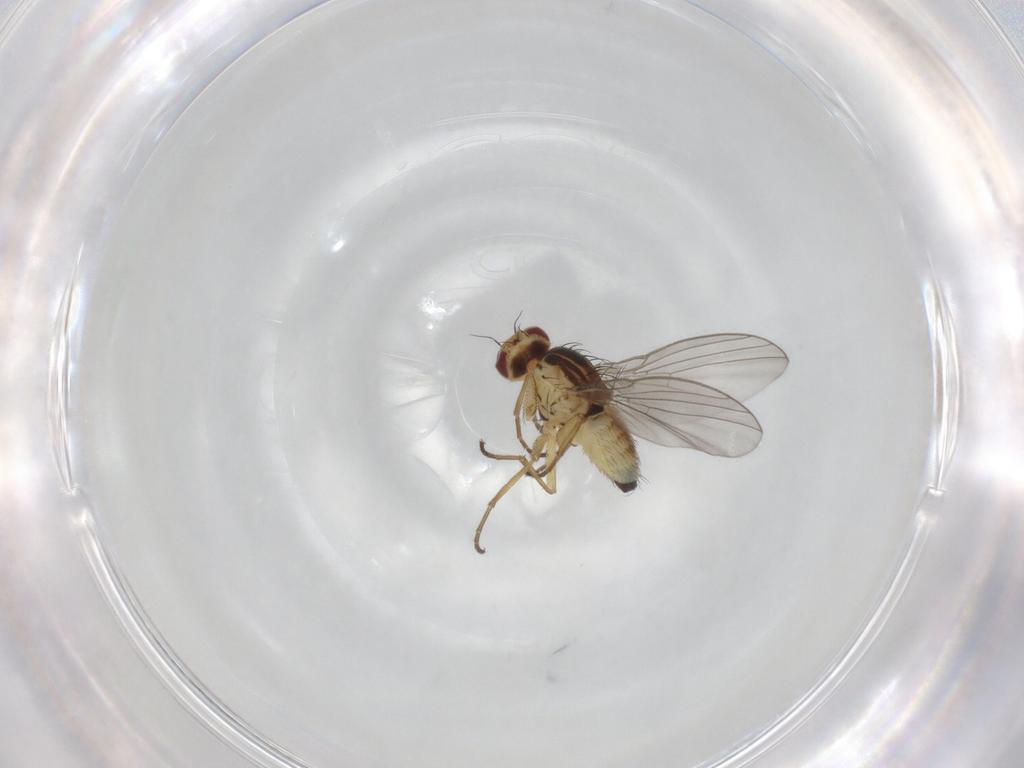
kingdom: Animalia
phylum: Arthropoda
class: Insecta
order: Diptera
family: Agromyzidae
